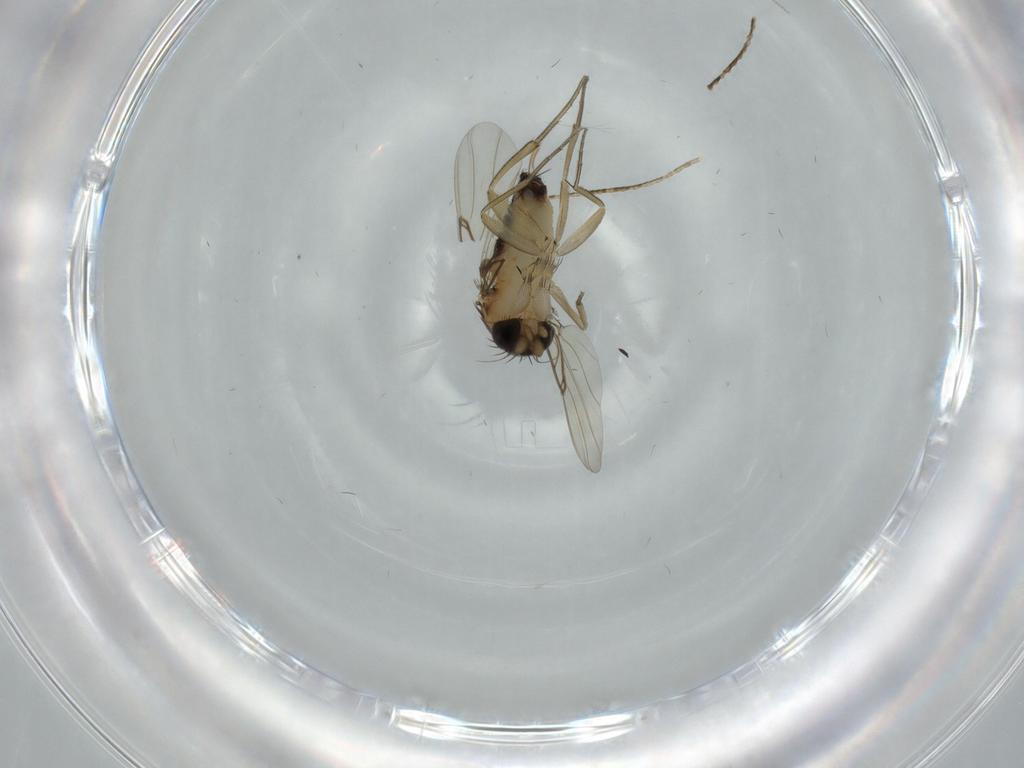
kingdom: Animalia
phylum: Arthropoda
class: Insecta
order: Diptera
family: Phoridae
